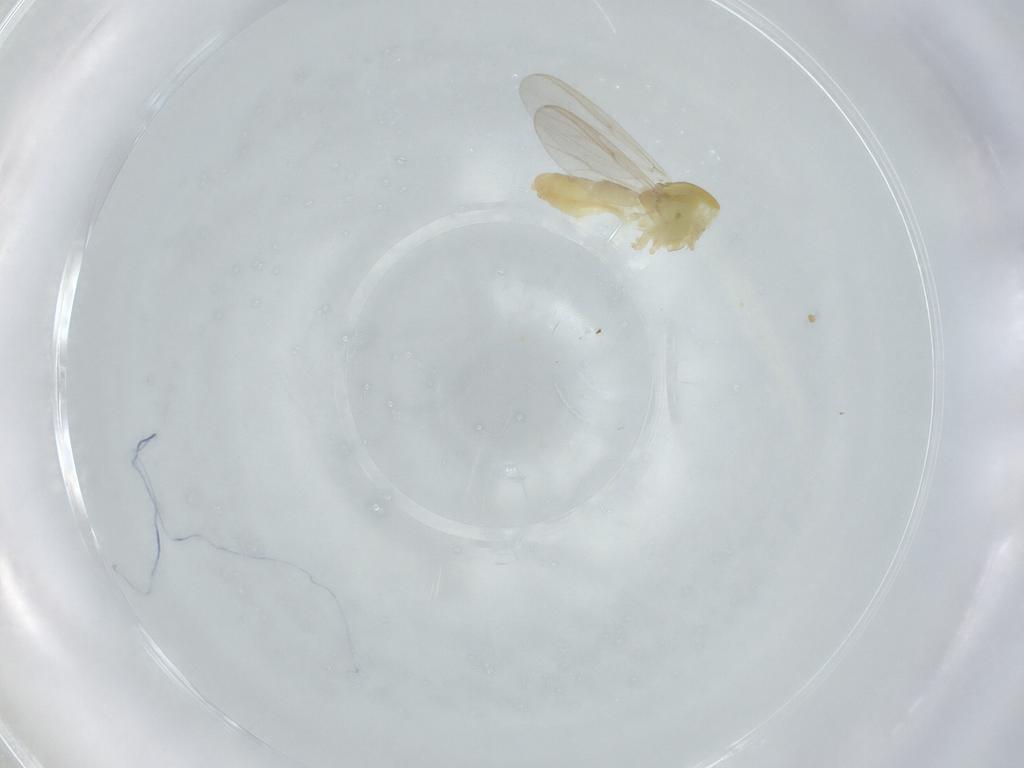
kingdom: Animalia
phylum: Arthropoda
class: Insecta
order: Diptera
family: Chironomidae
